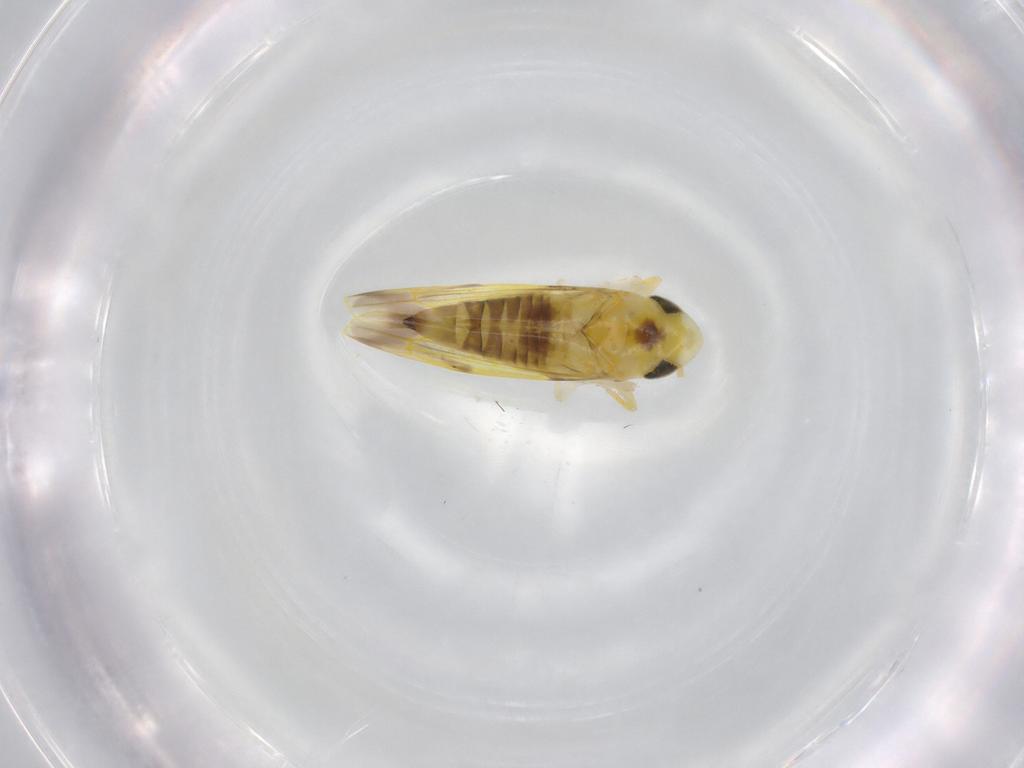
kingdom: Animalia
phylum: Arthropoda
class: Insecta
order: Hemiptera
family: Cicadellidae
